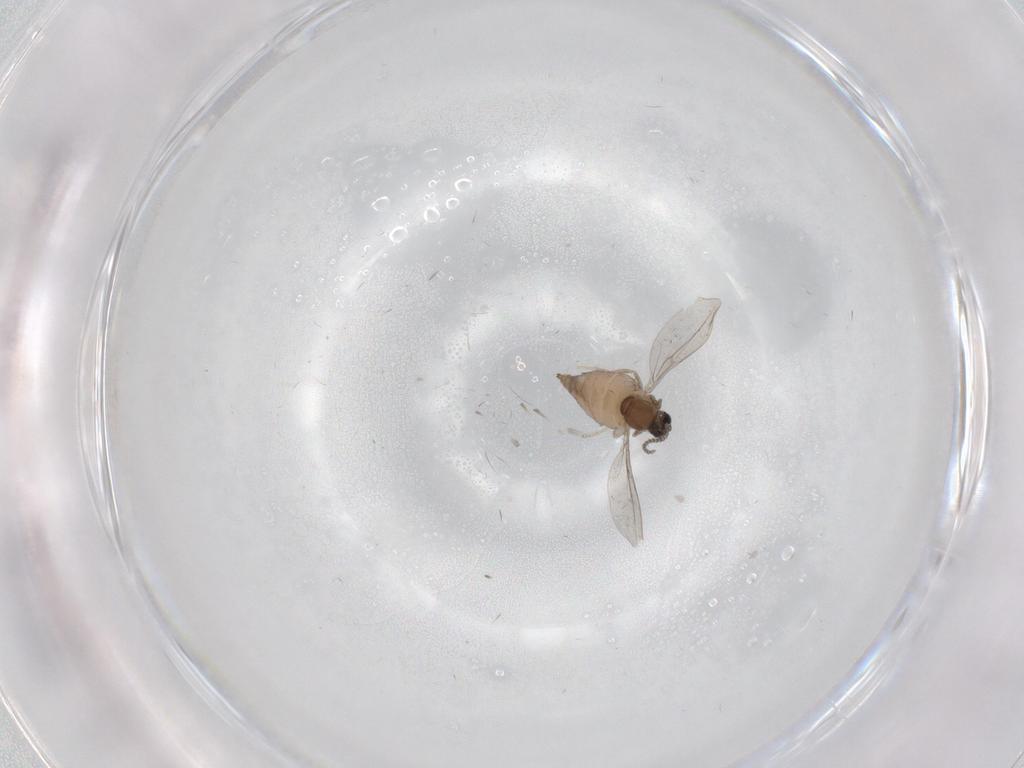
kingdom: Animalia
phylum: Arthropoda
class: Insecta
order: Diptera
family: Cecidomyiidae
